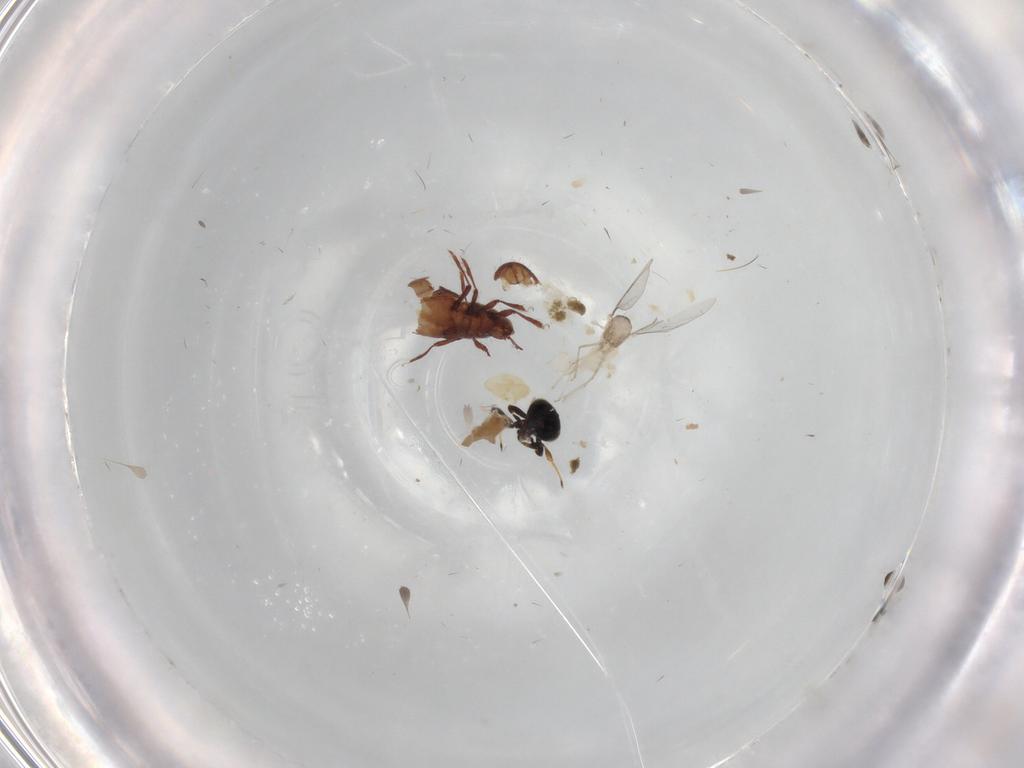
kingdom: Animalia
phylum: Arthropoda
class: Insecta
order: Diptera
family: Cecidomyiidae
